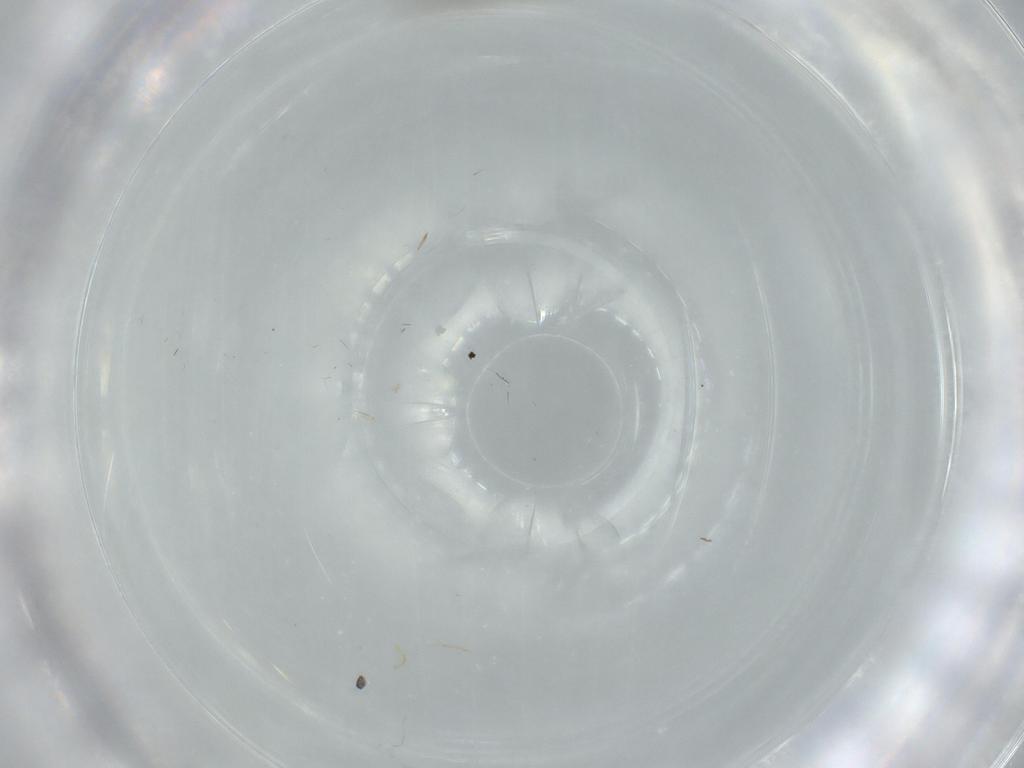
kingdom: Animalia
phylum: Arthropoda
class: Insecta
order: Diptera
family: Phoridae
